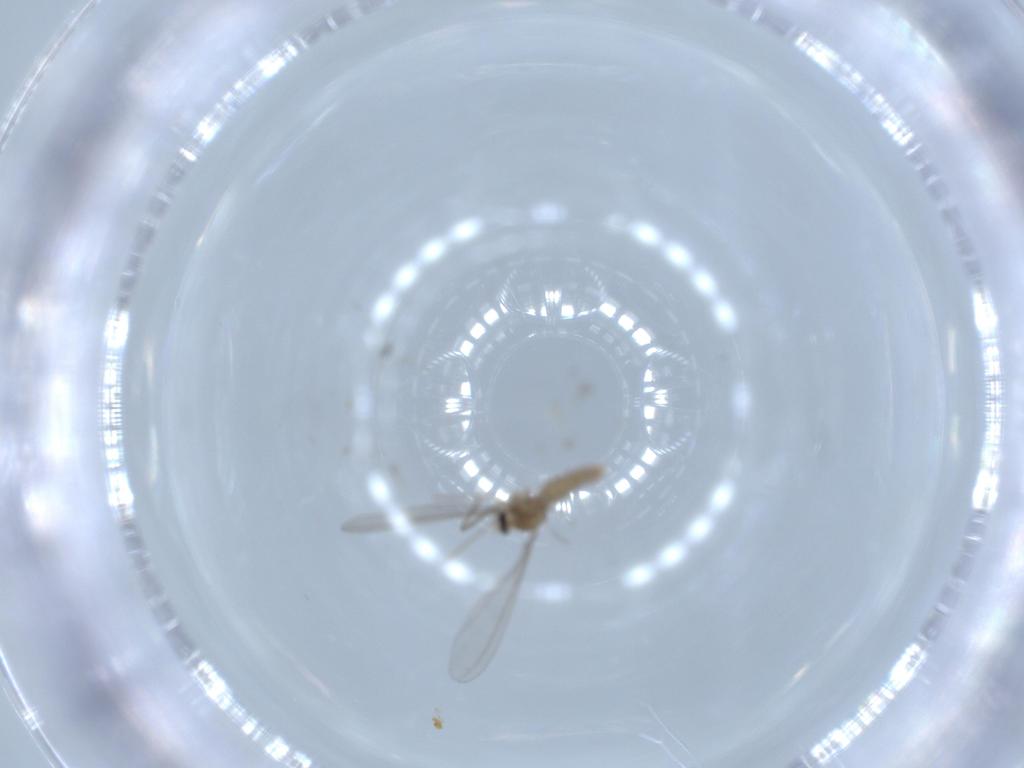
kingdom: Animalia
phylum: Arthropoda
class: Insecta
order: Diptera
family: Cecidomyiidae
